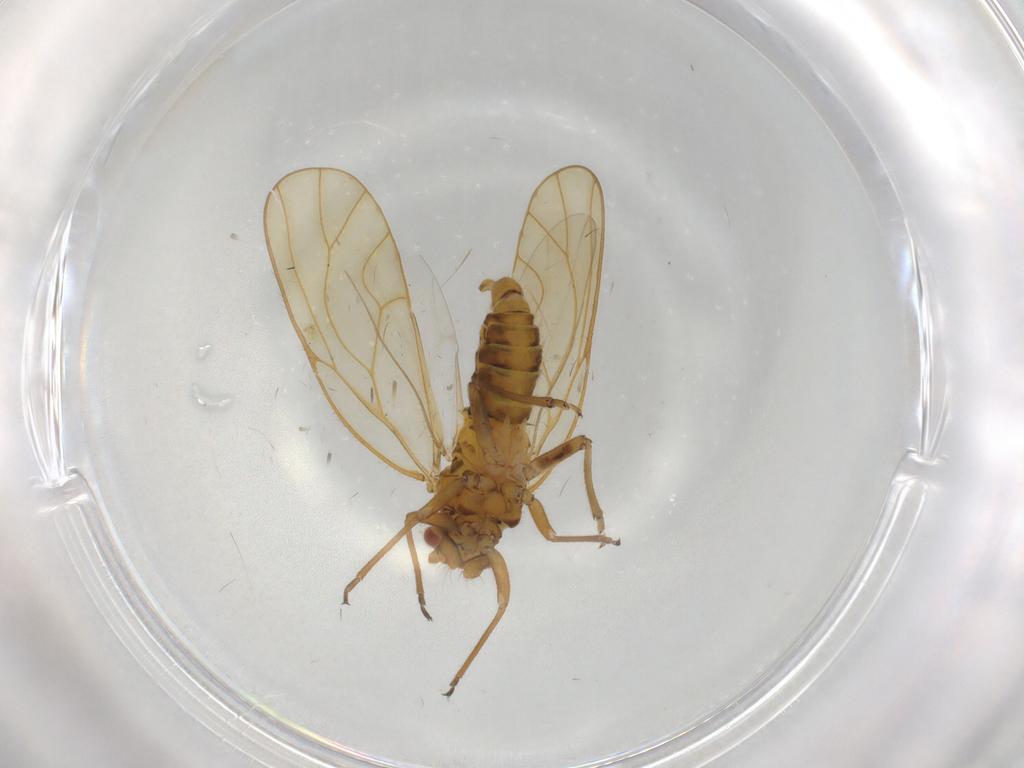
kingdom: Animalia
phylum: Arthropoda
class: Insecta
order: Hemiptera
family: Psyllidae
